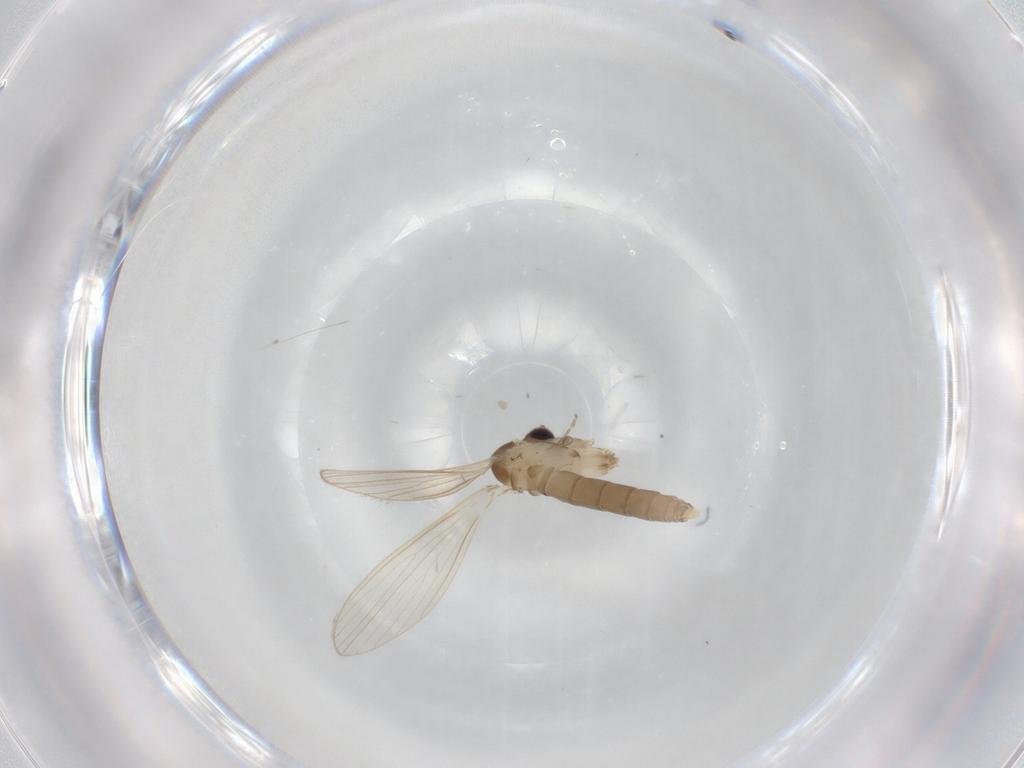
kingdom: Animalia
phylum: Arthropoda
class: Insecta
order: Diptera
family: Psychodidae
